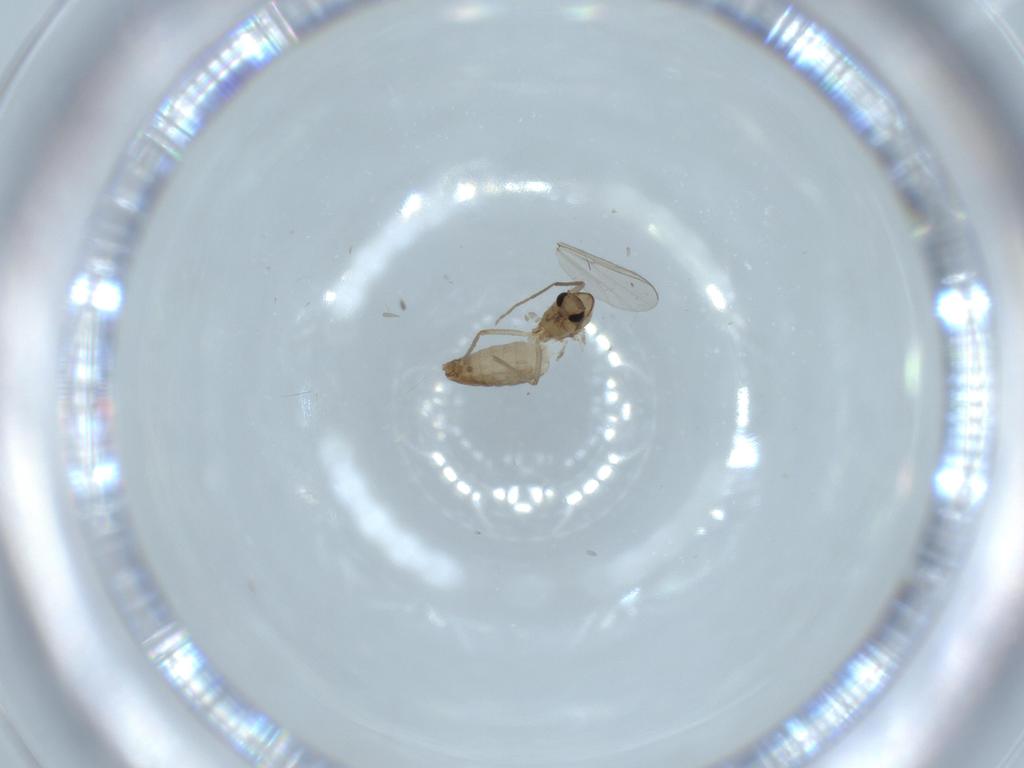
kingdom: Animalia
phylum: Arthropoda
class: Insecta
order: Diptera
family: Chironomidae
